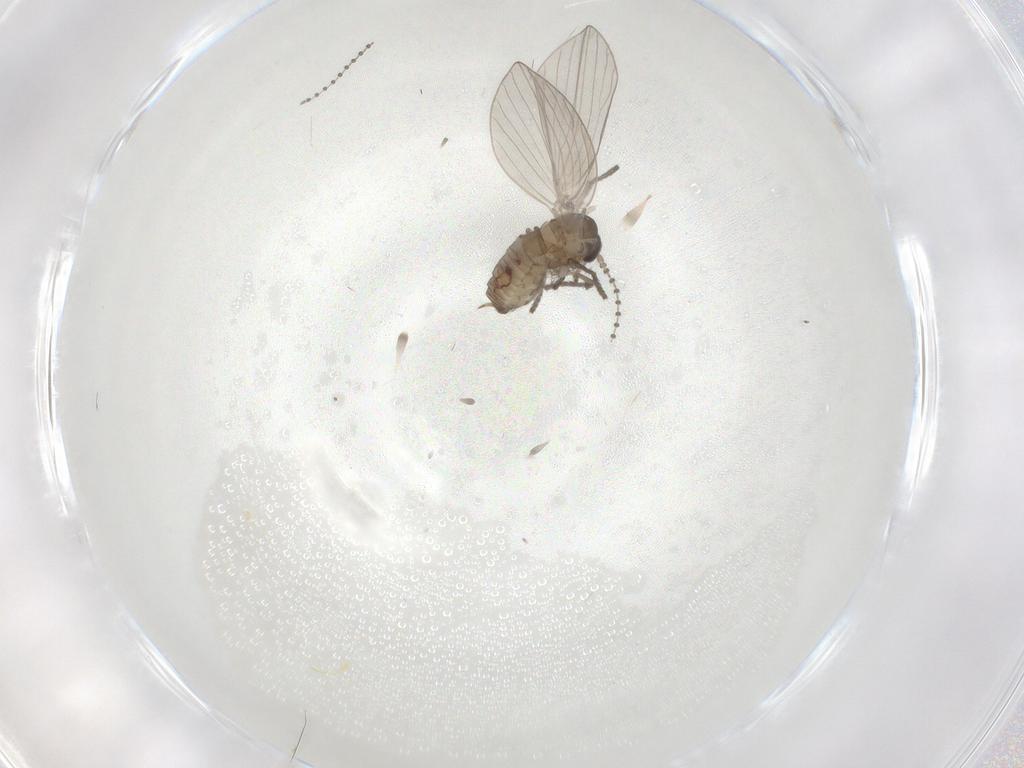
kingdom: Animalia
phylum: Arthropoda
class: Insecta
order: Diptera
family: Psychodidae
